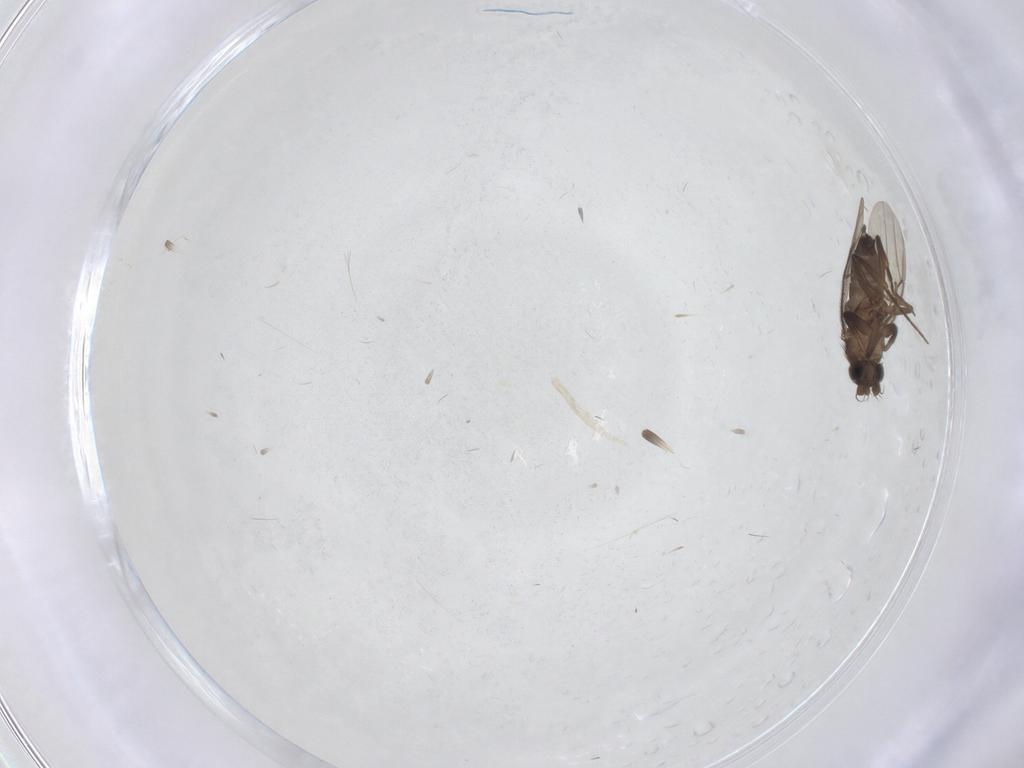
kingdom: Animalia
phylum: Arthropoda
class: Insecta
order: Diptera
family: Phoridae
